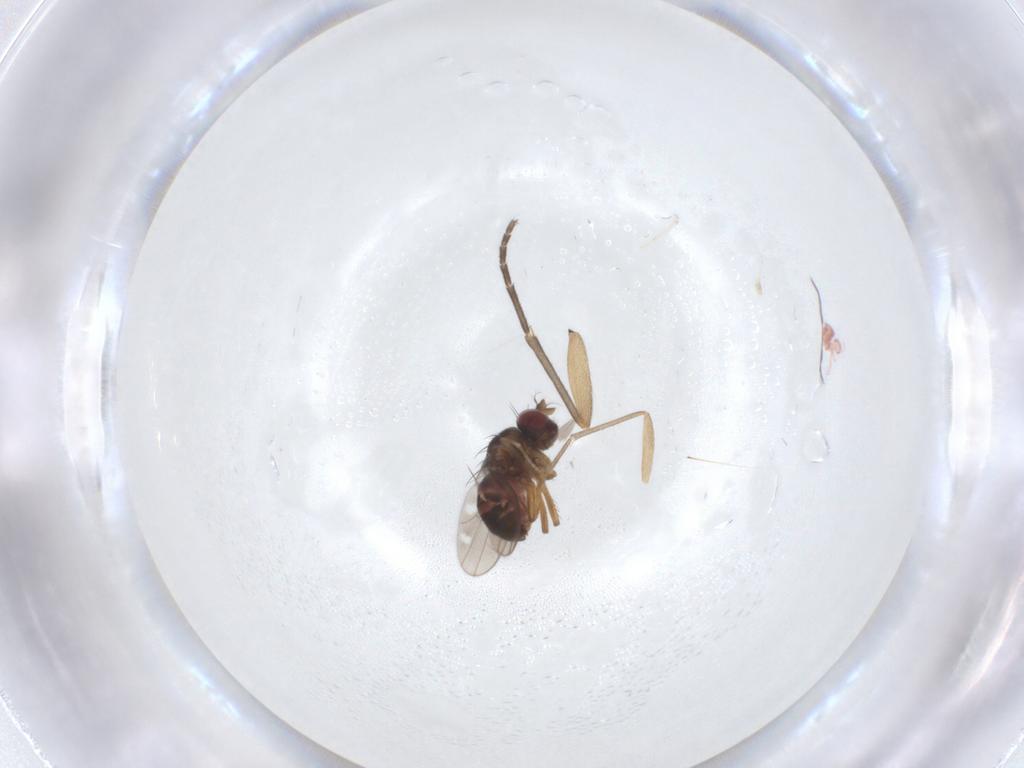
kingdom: Animalia
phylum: Arthropoda
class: Insecta
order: Diptera
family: Ephydridae
